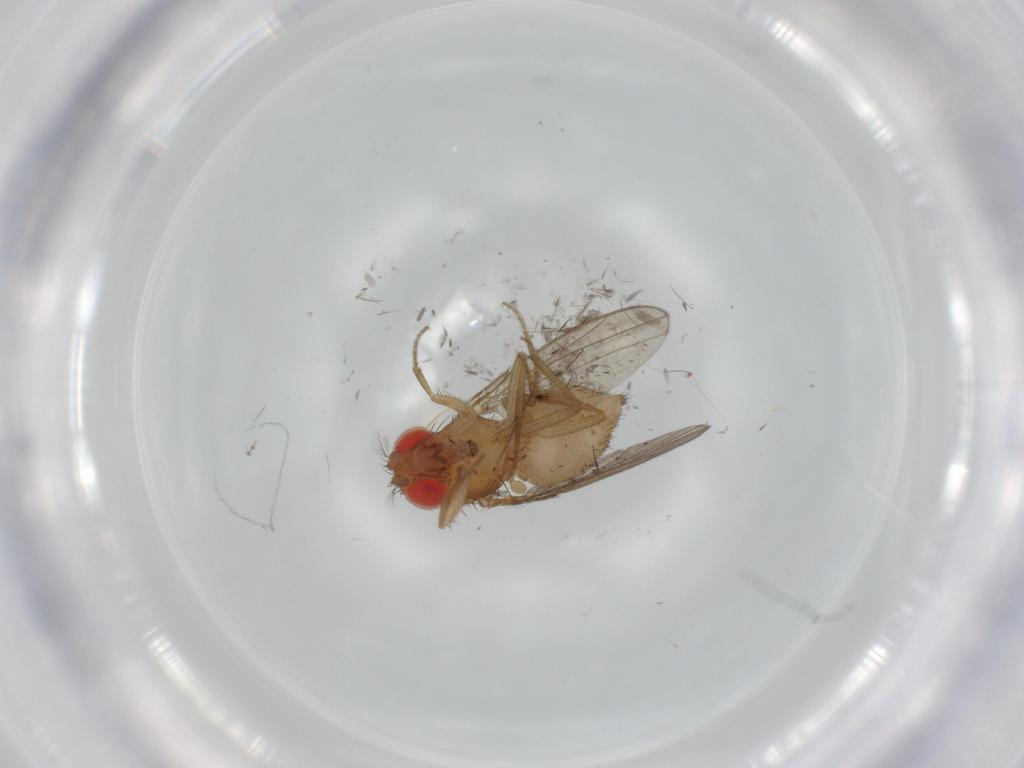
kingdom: Animalia
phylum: Arthropoda
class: Insecta
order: Diptera
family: Drosophilidae
